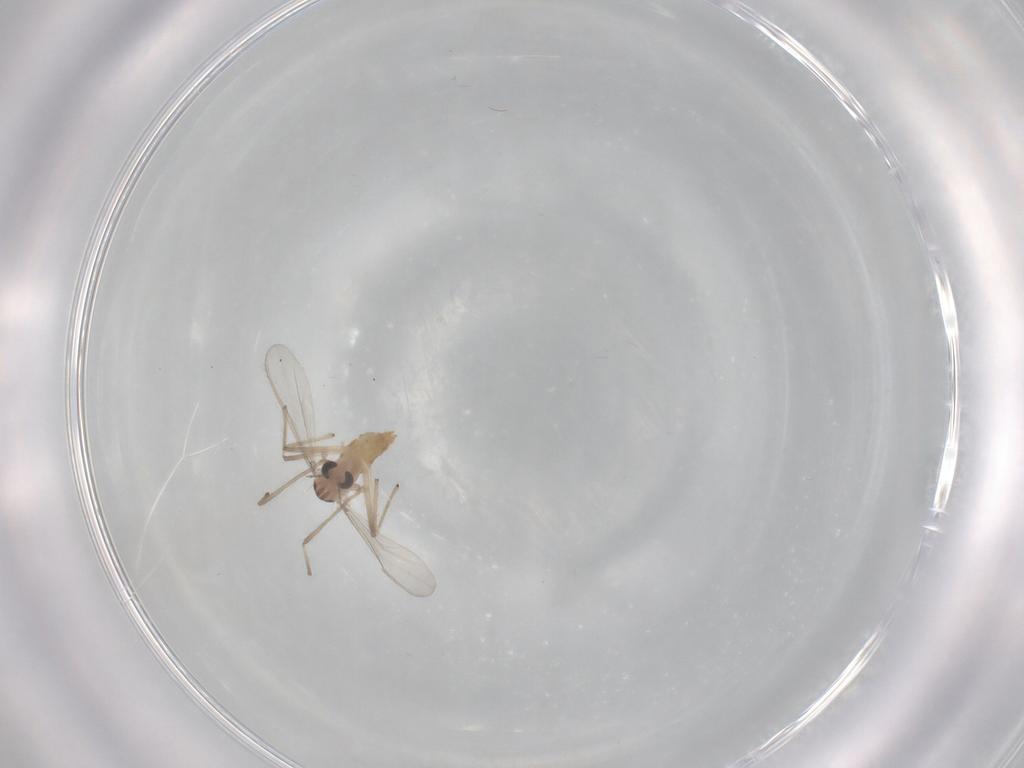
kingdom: Animalia
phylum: Arthropoda
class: Insecta
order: Diptera
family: Chironomidae
